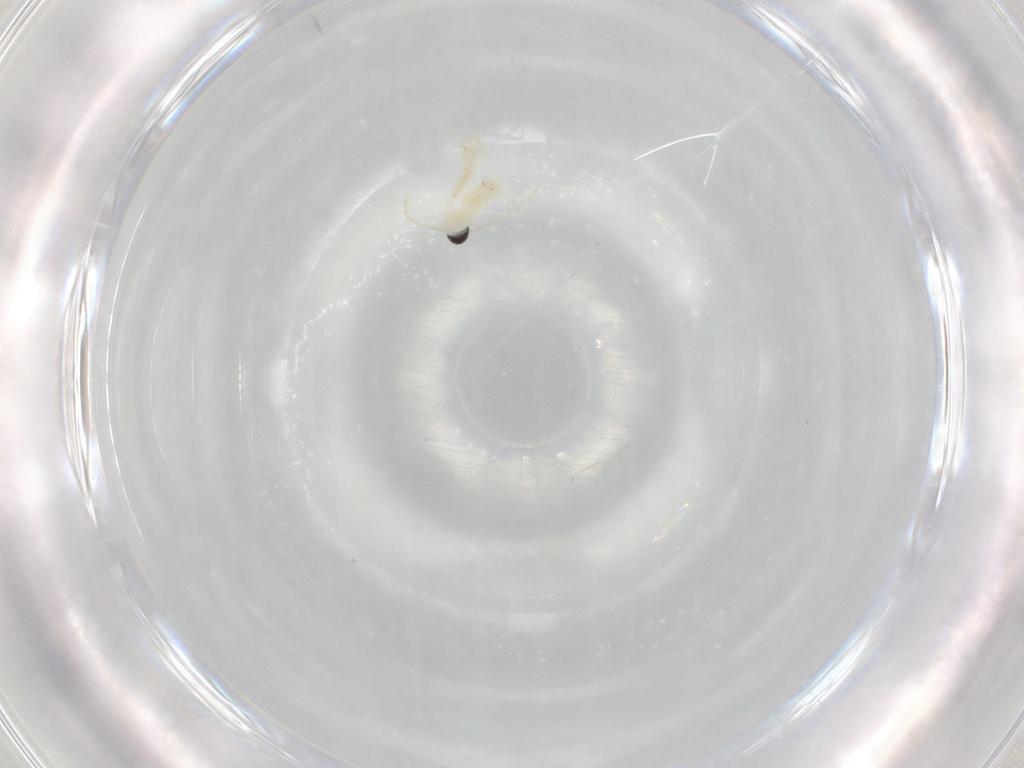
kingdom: Animalia
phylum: Arthropoda
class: Insecta
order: Diptera
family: Cecidomyiidae
